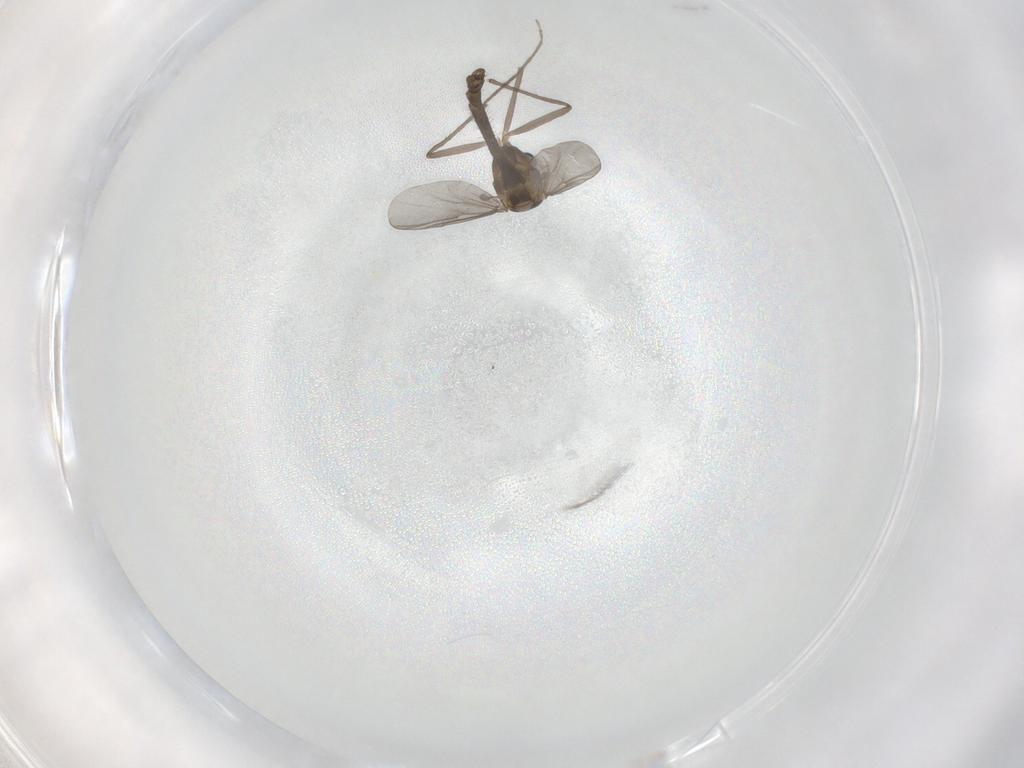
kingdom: Animalia
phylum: Arthropoda
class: Insecta
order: Diptera
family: Chironomidae
